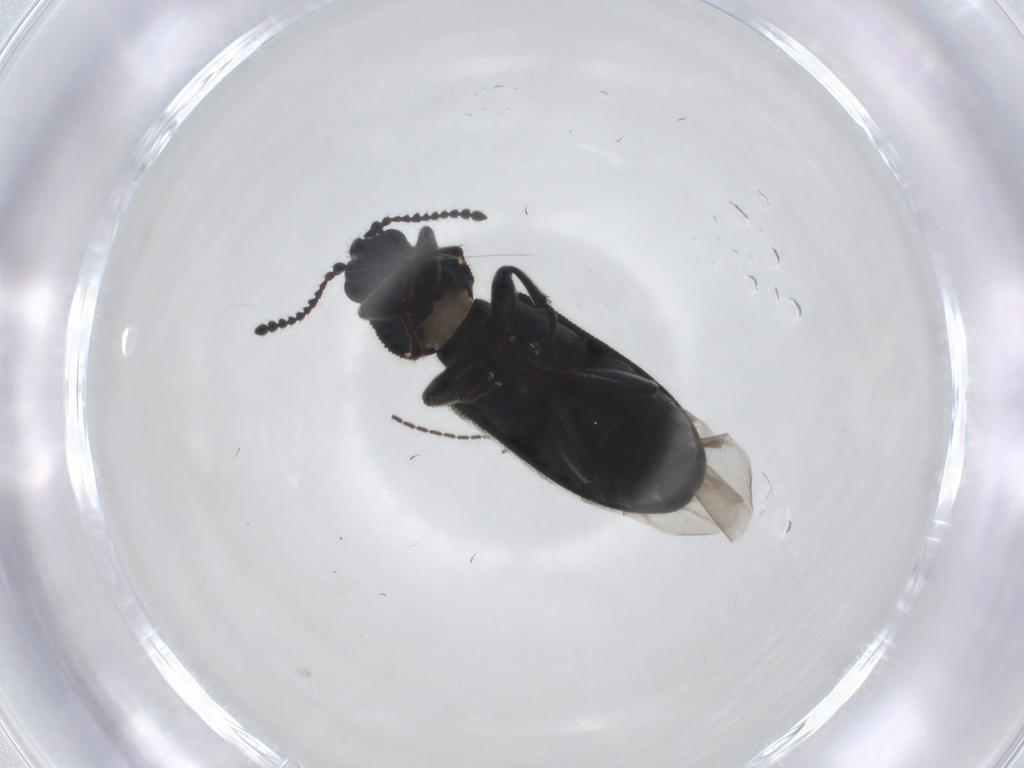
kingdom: Animalia
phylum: Arthropoda
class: Insecta
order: Coleoptera
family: Melyridae
